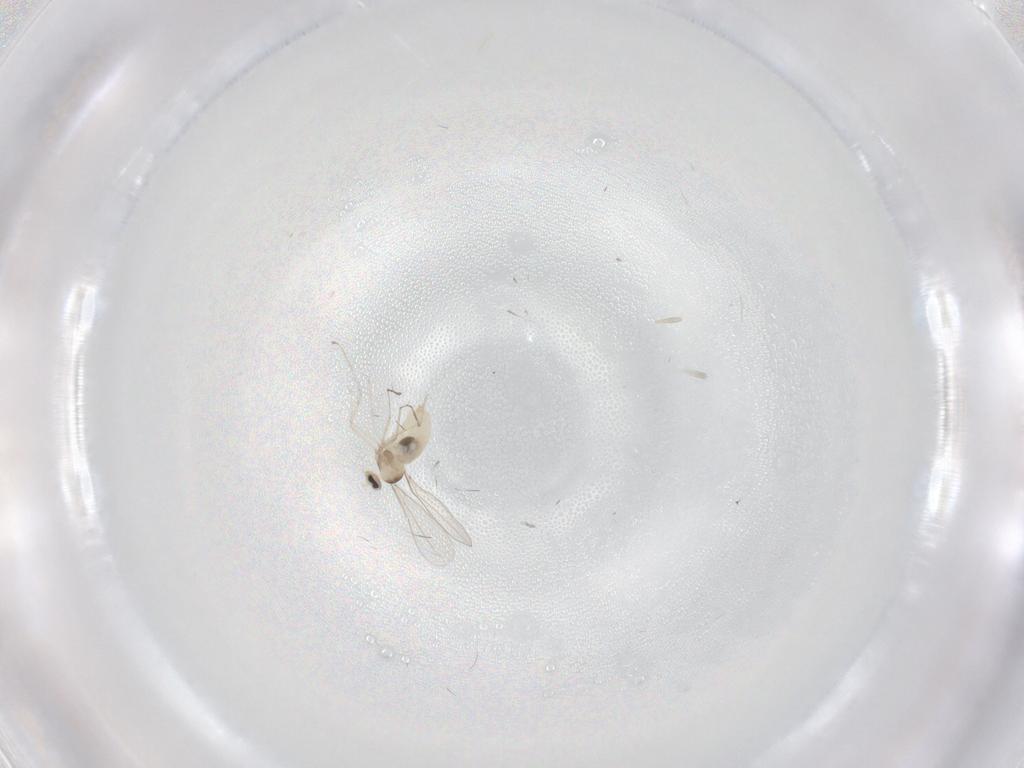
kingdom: Animalia
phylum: Arthropoda
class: Insecta
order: Diptera
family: Cecidomyiidae
